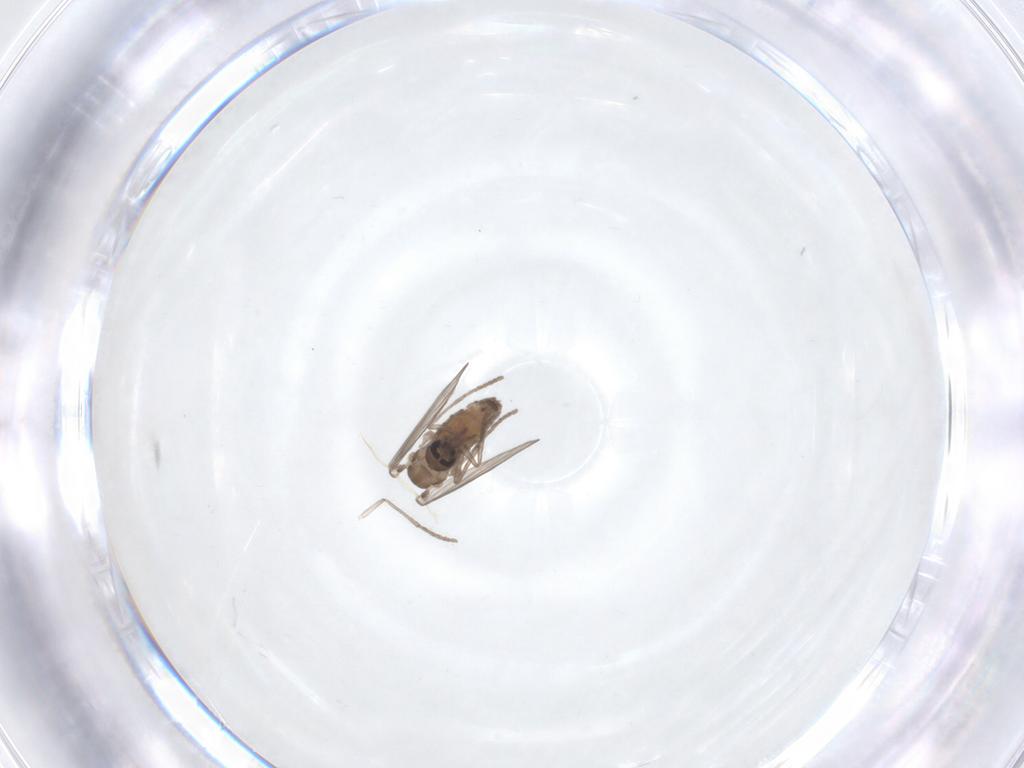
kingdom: Animalia
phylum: Arthropoda
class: Insecta
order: Diptera
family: Psychodidae
